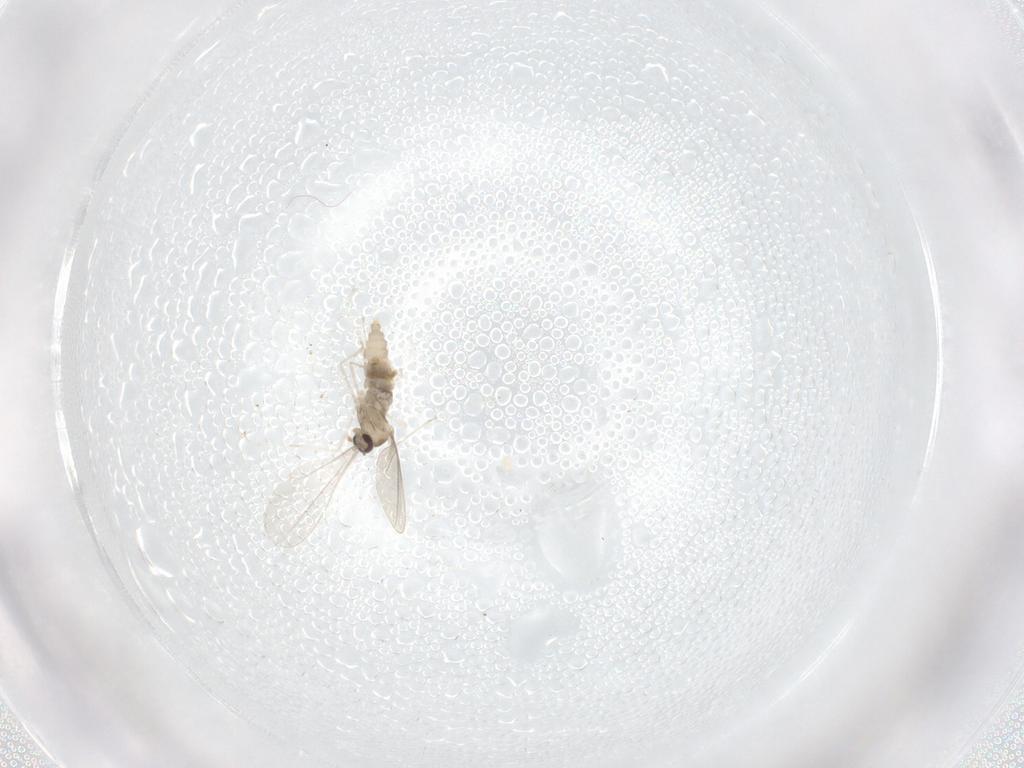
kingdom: Animalia
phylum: Arthropoda
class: Insecta
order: Diptera
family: Chironomidae
